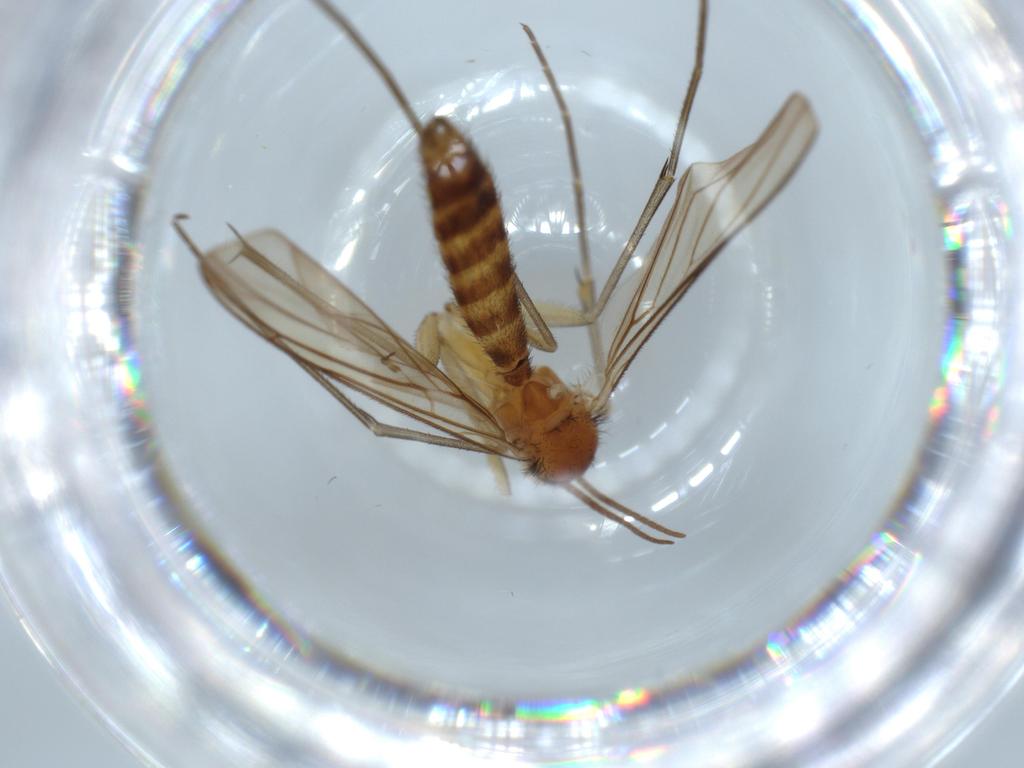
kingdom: Animalia
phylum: Arthropoda
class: Insecta
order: Diptera
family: Chironomidae
